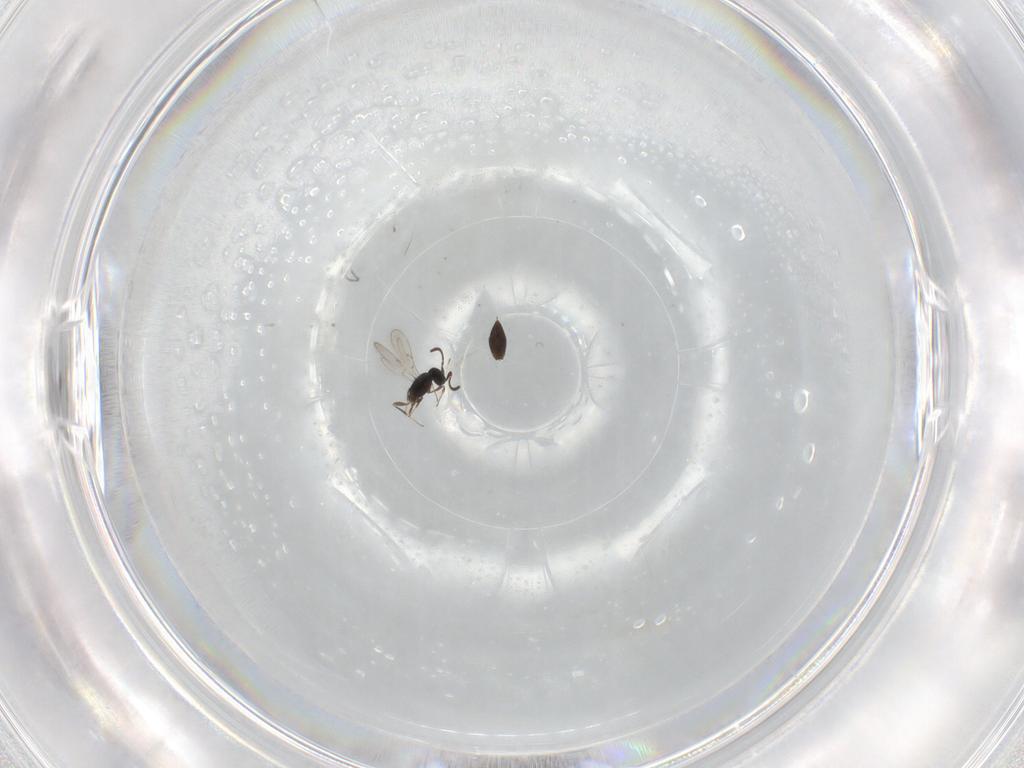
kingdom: Animalia
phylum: Arthropoda
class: Insecta
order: Hymenoptera
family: Scelionidae
